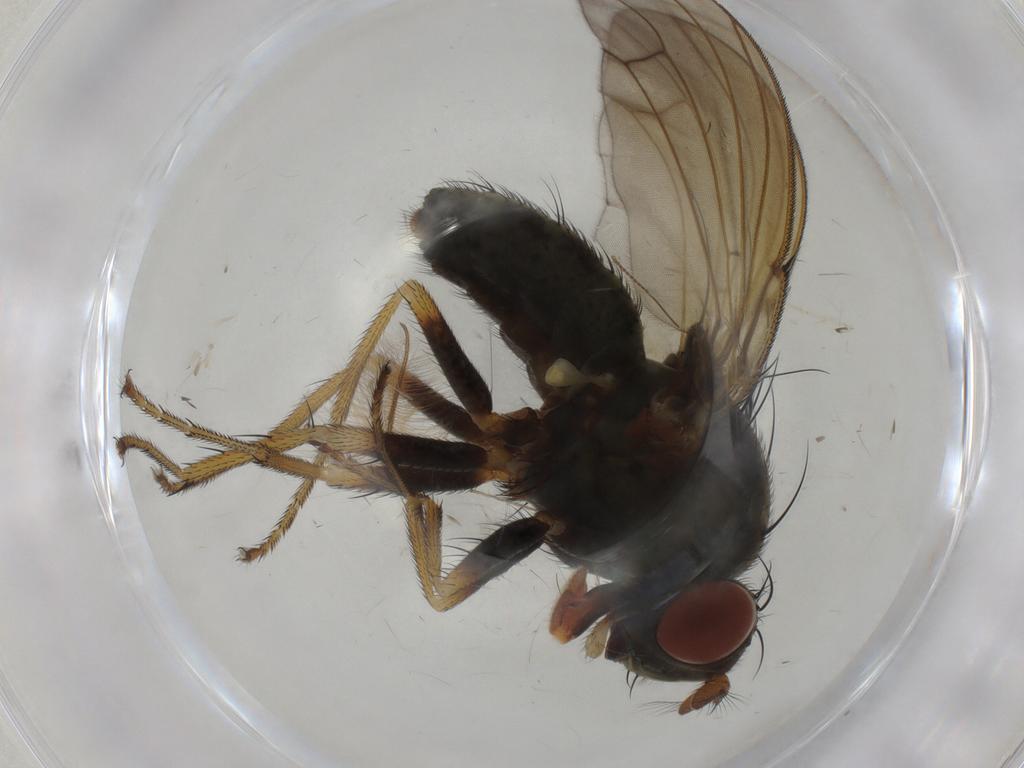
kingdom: Animalia
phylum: Arthropoda
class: Insecta
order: Diptera
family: Ephydridae
